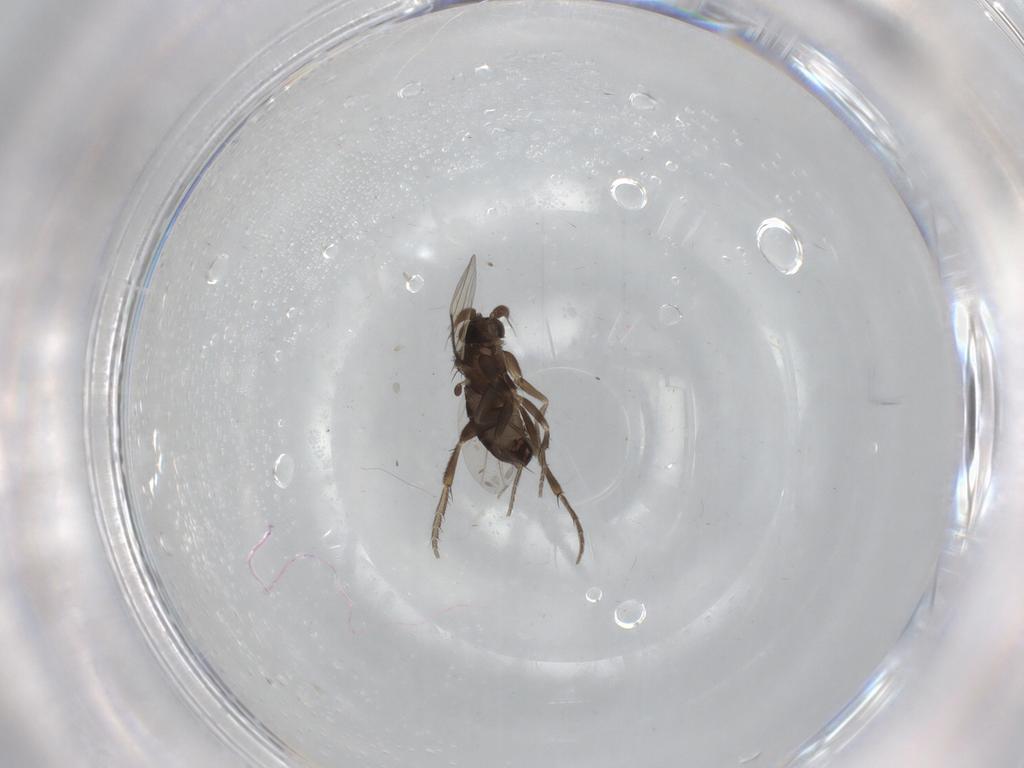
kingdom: Animalia
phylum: Arthropoda
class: Insecta
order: Diptera
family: Phoridae
